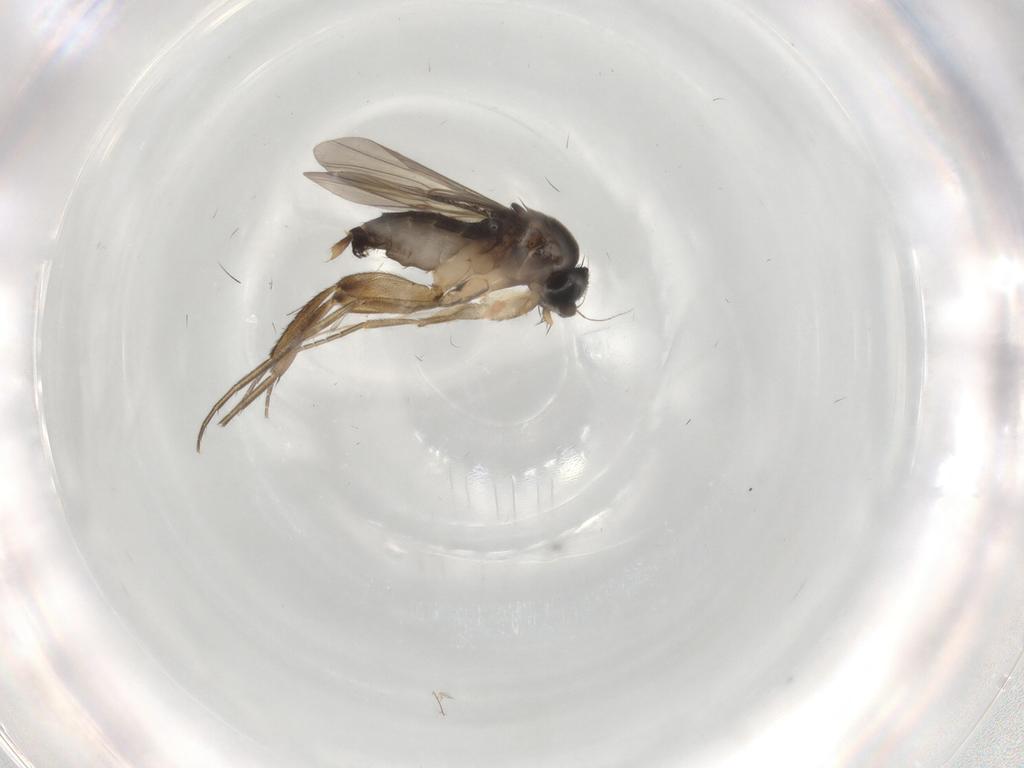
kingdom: Animalia
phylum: Arthropoda
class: Insecta
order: Diptera
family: Phoridae
